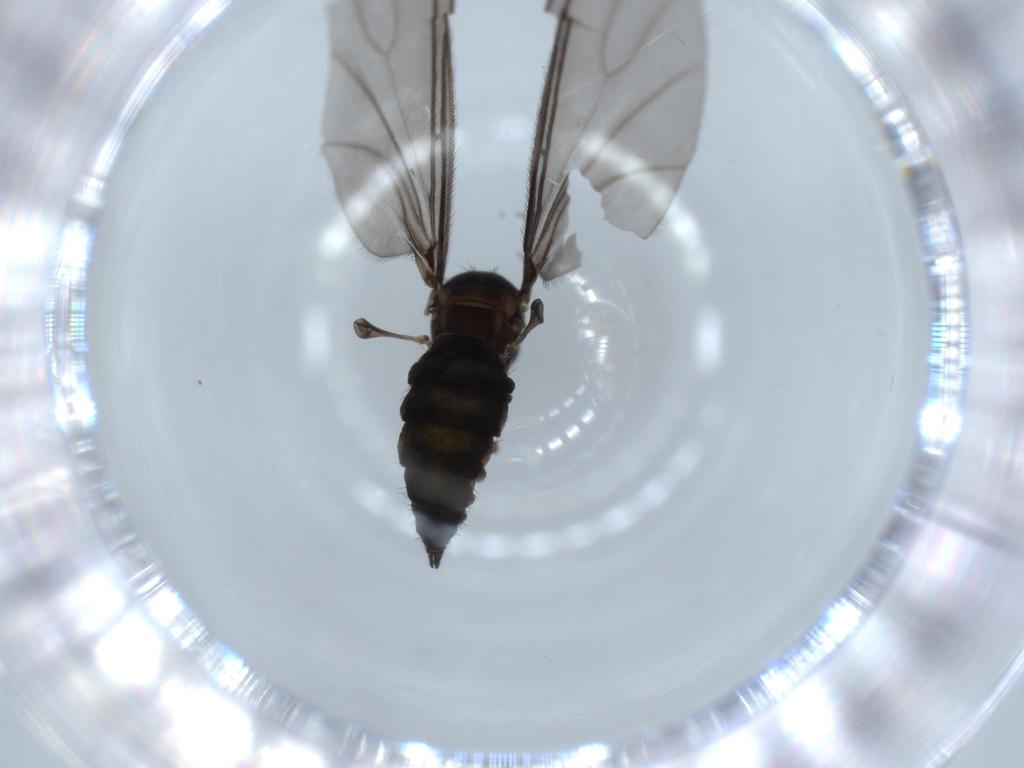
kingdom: Animalia
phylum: Arthropoda
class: Insecta
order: Diptera
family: Sciaridae
